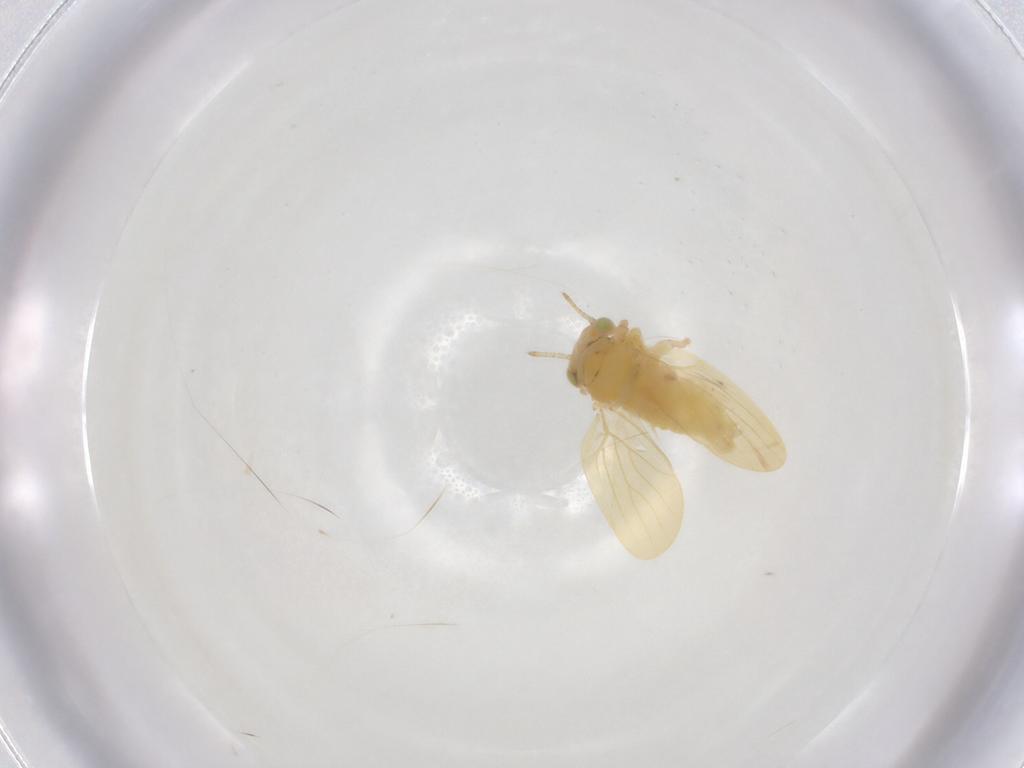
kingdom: Animalia
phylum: Arthropoda
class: Insecta
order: Hemiptera
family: Aphalaridae
